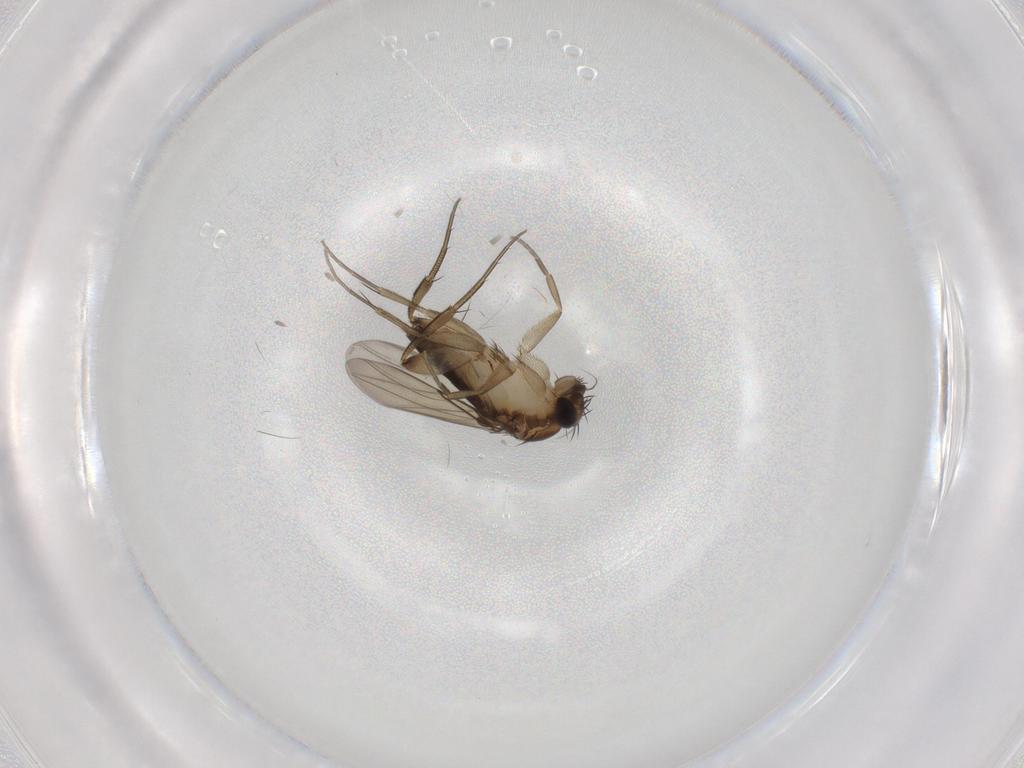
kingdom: Animalia
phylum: Arthropoda
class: Insecta
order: Diptera
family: Phoridae
